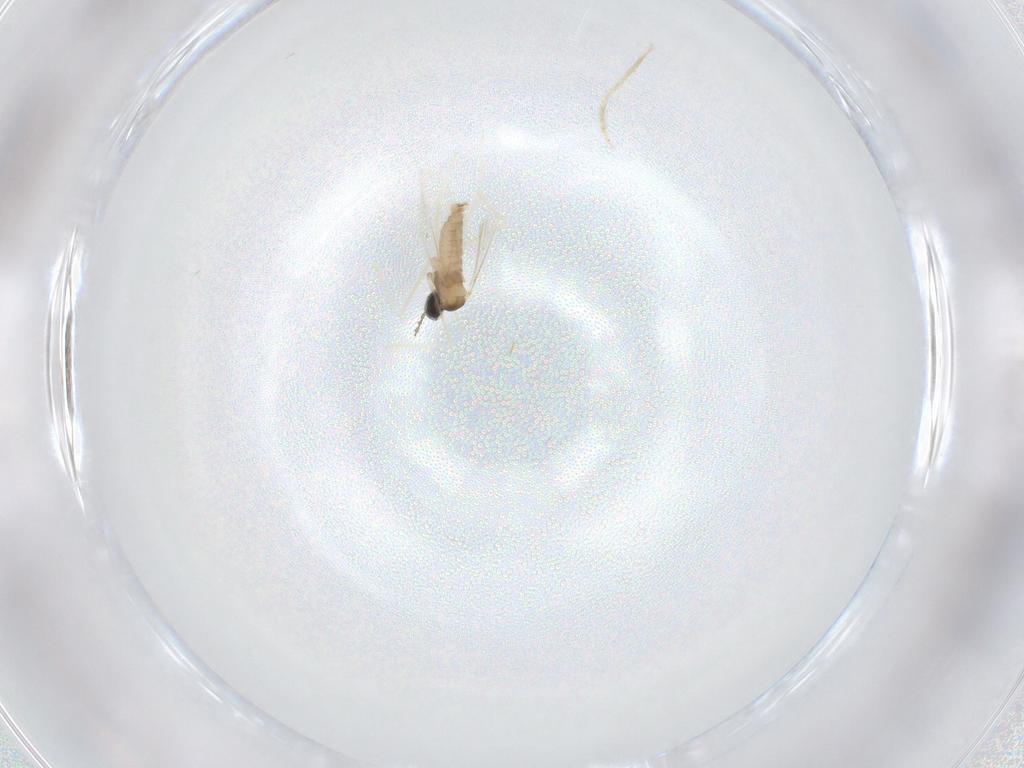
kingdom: Animalia
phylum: Arthropoda
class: Insecta
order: Diptera
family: Cecidomyiidae
